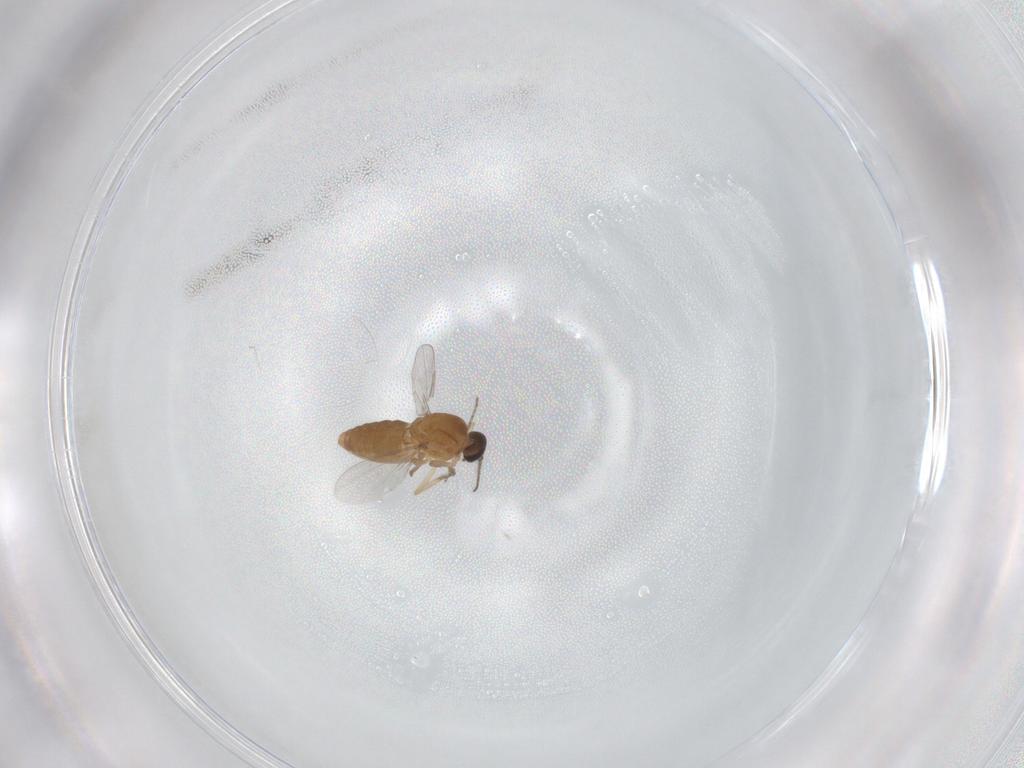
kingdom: Animalia
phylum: Arthropoda
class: Insecta
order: Diptera
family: Ceratopogonidae
